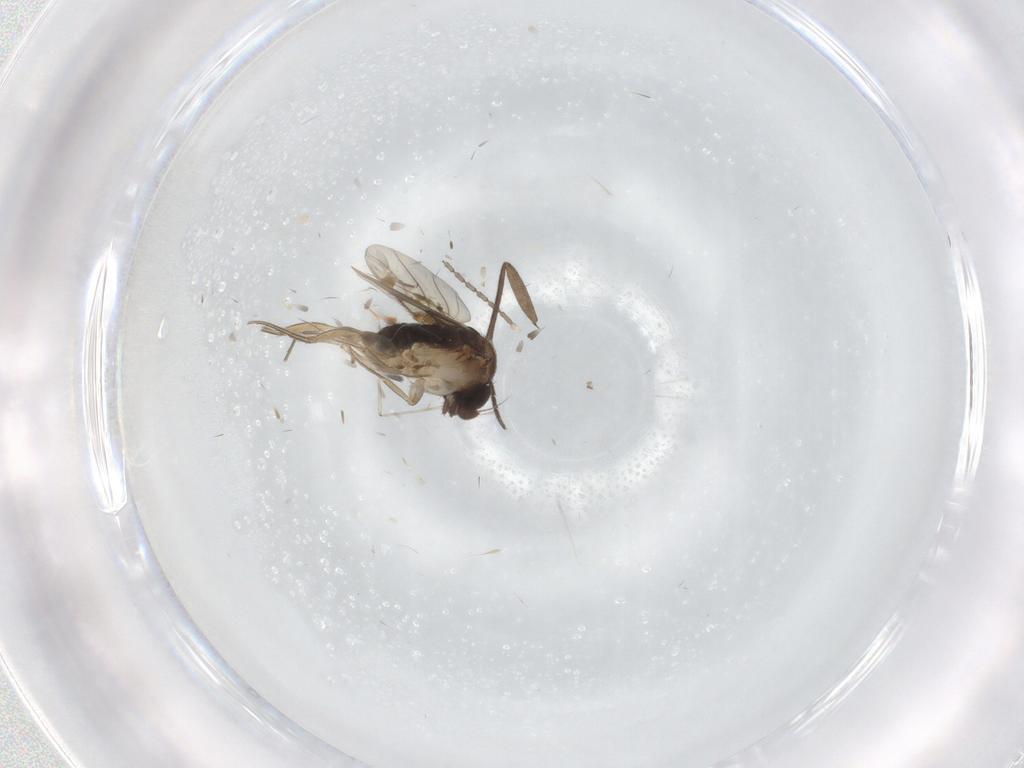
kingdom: Animalia
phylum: Arthropoda
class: Insecta
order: Diptera
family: Sciaridae
